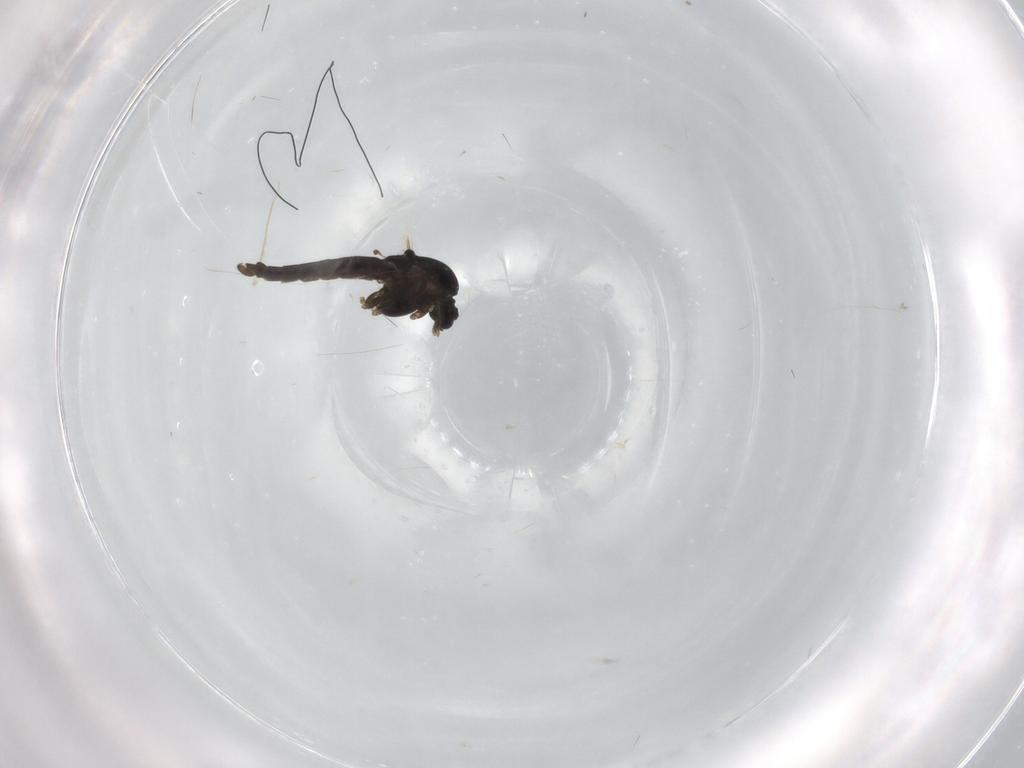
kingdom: Animalia
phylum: Arthropoda
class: Insecta
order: Diptera
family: Chironomidae
